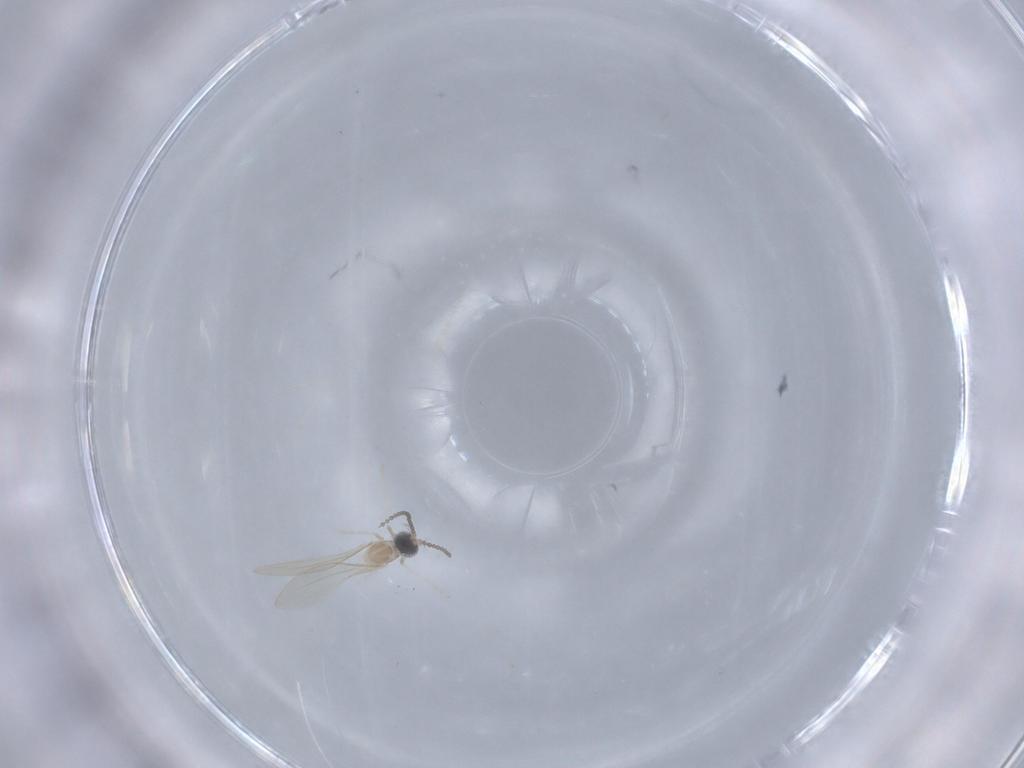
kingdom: Animalia
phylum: Arthropoda
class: Insecta
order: Diptera
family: Cecidomyiidae
